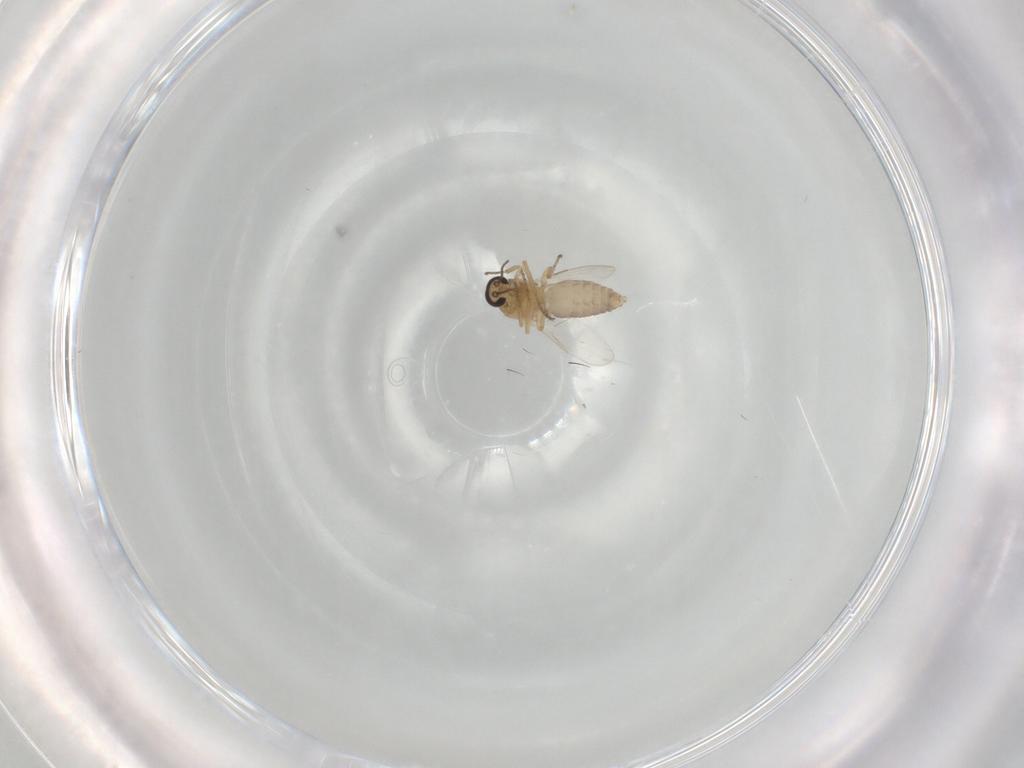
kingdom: Animalia
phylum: Arthropoda
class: Insecta
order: Diptera
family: Ceratopogonidae
